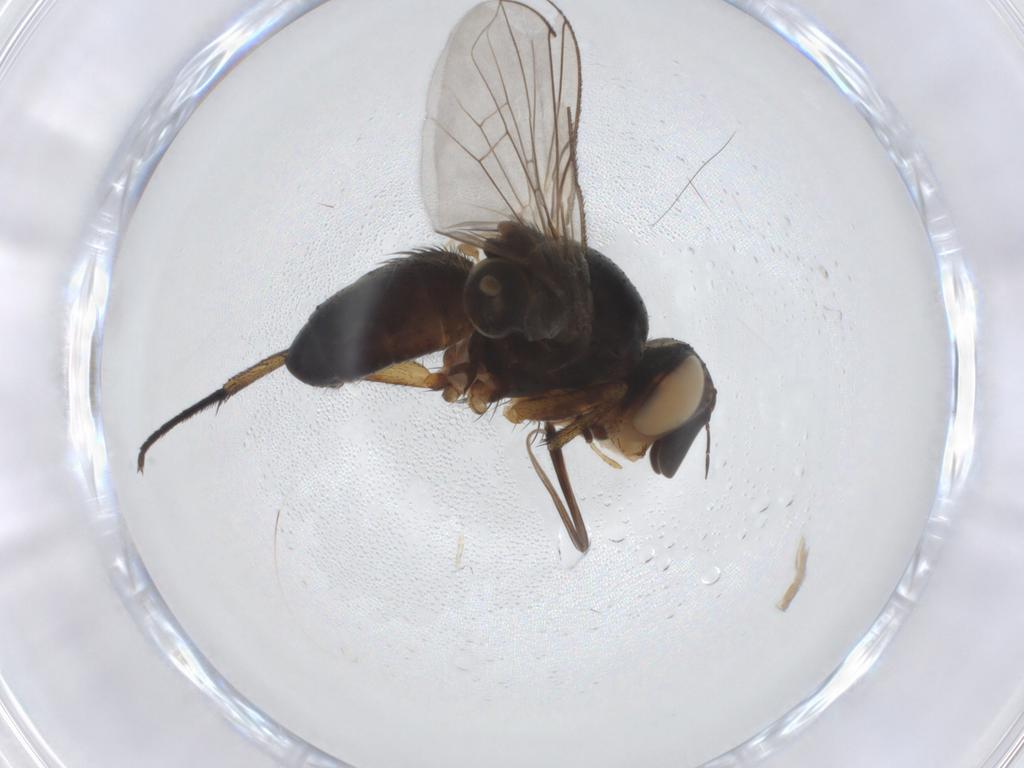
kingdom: Animalia
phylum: Arthropoda
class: Insecta
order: Diptera
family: Tachinidae
